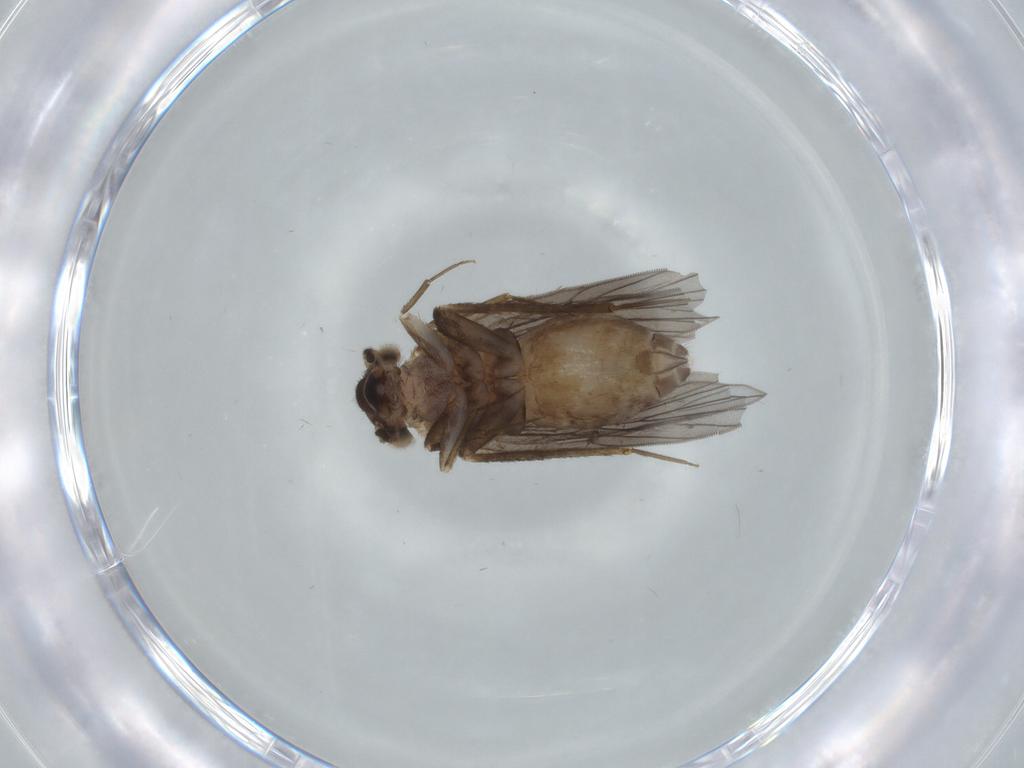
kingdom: Animalia
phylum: Arthropoda
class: Insecta
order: Psocodea
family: Lepidopsocidae
